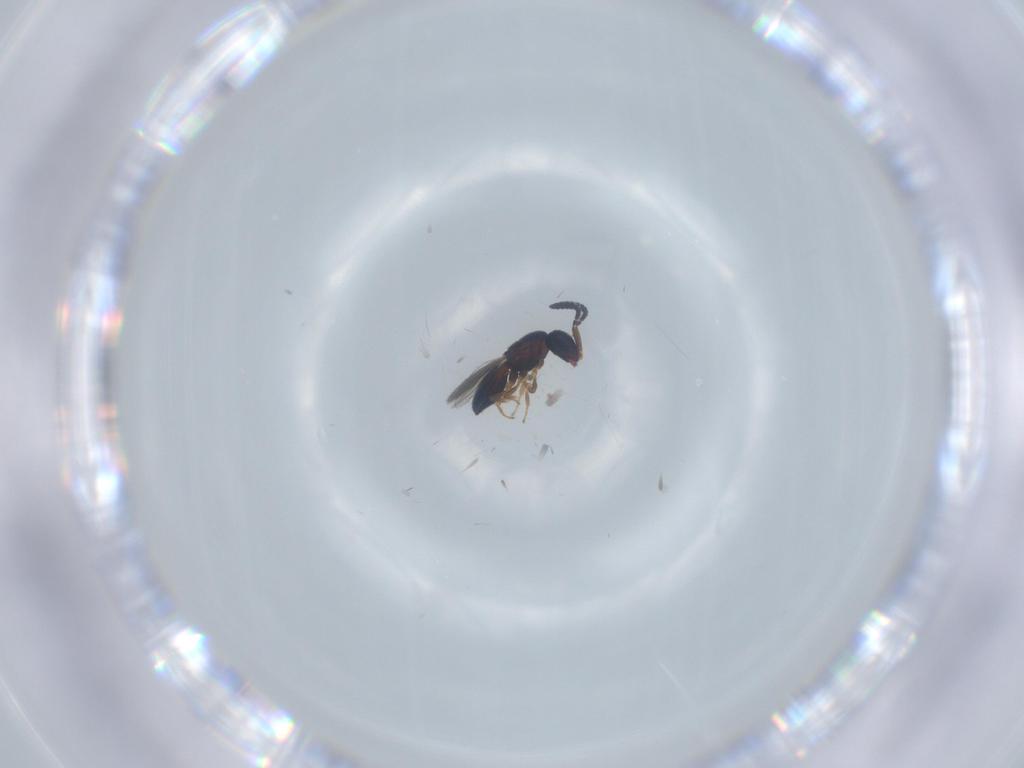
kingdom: Animalia
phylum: Arthropoda
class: Insecta
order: Hymenoptera
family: Scelionidae
